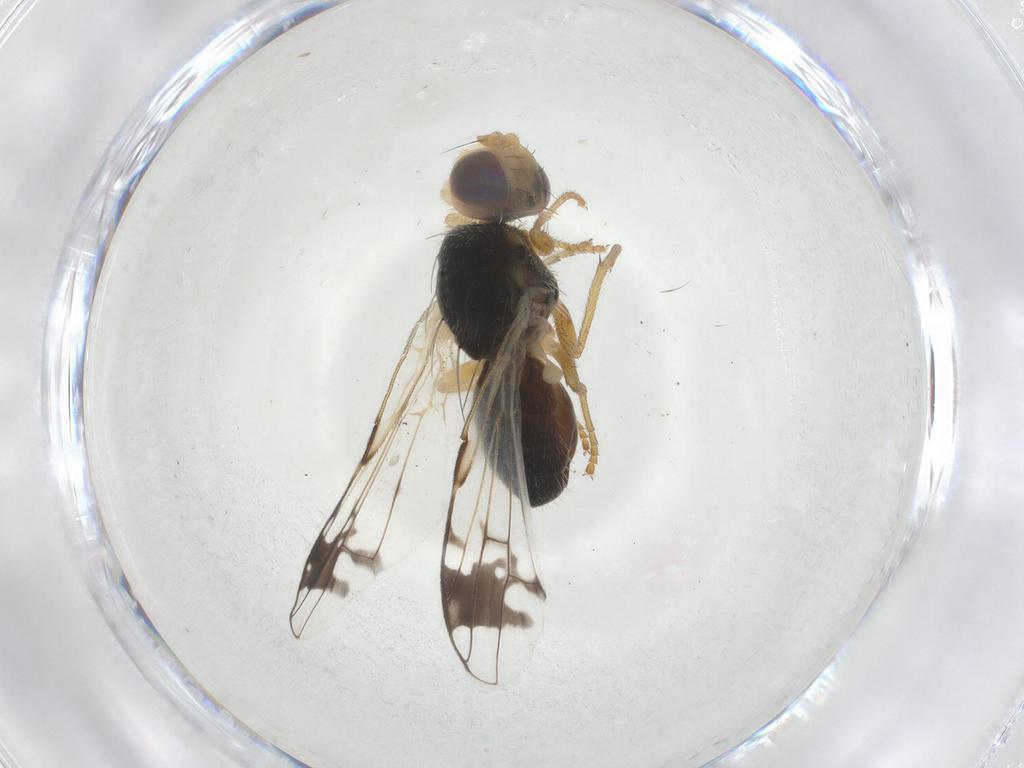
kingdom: Animalia
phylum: Arthropoda
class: Insecta
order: Diptera
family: Tephritidae
